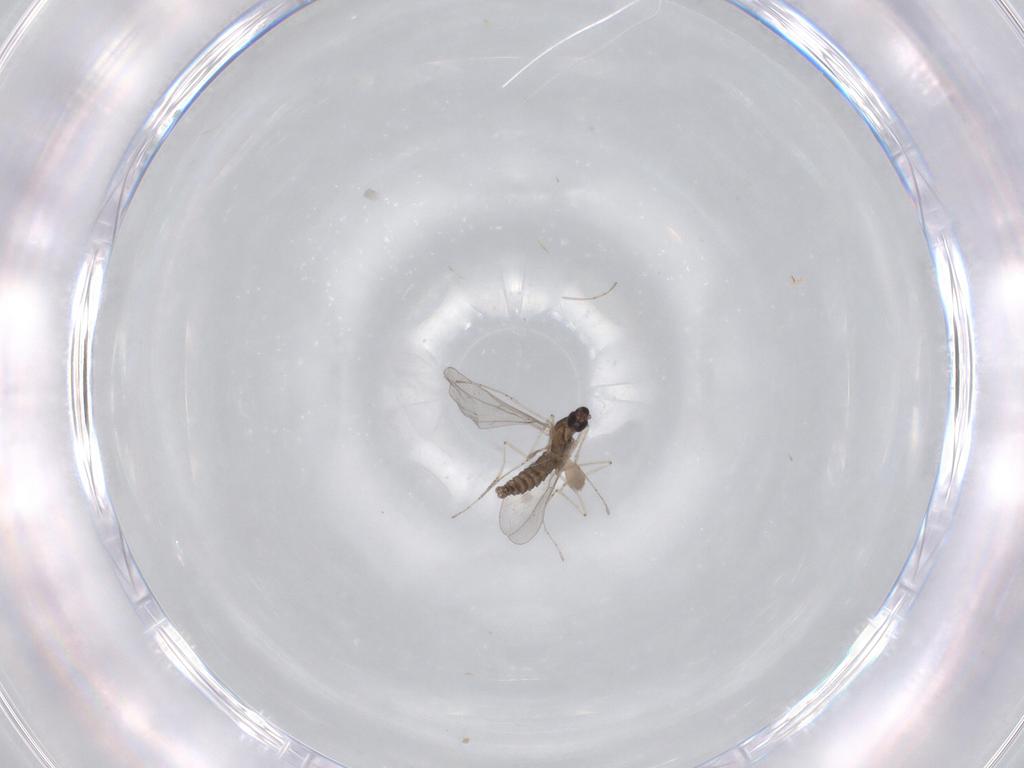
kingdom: Animalia
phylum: Arthropoda
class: Insecta
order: Diptera
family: Cecidomyiidae
